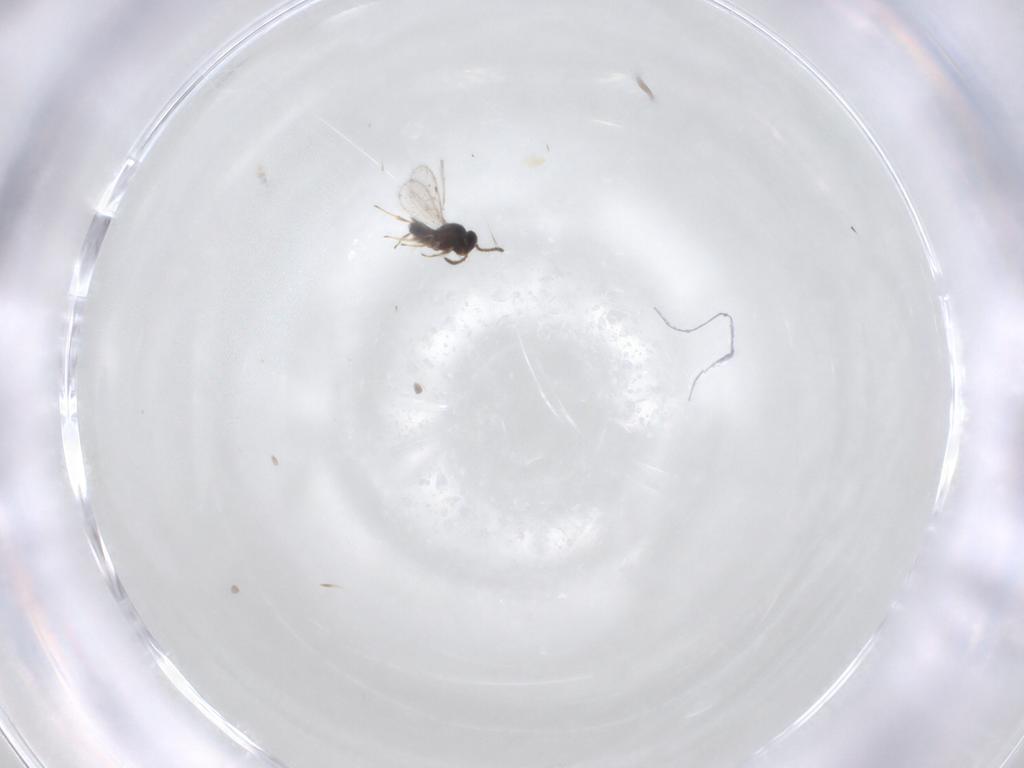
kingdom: Animalia
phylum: Arthropoda
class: Insecta
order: Hymenoptera
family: Scelionidae
